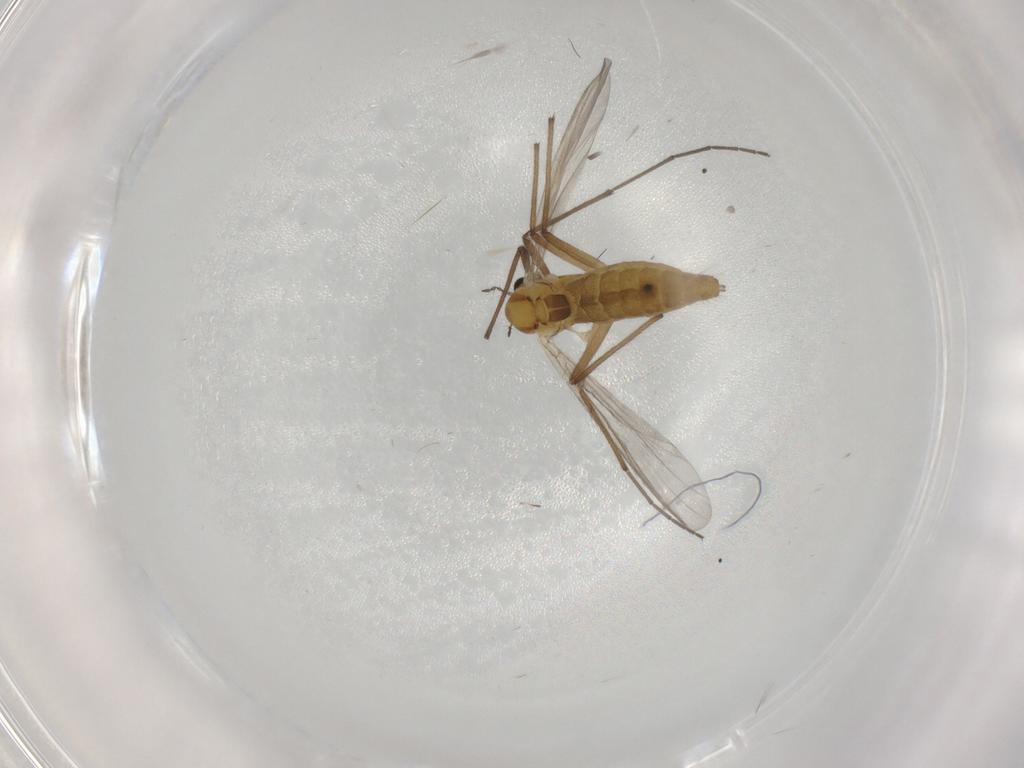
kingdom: Animalia
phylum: Arthropoda
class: Insecta
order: Diptera
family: Chironomidae
